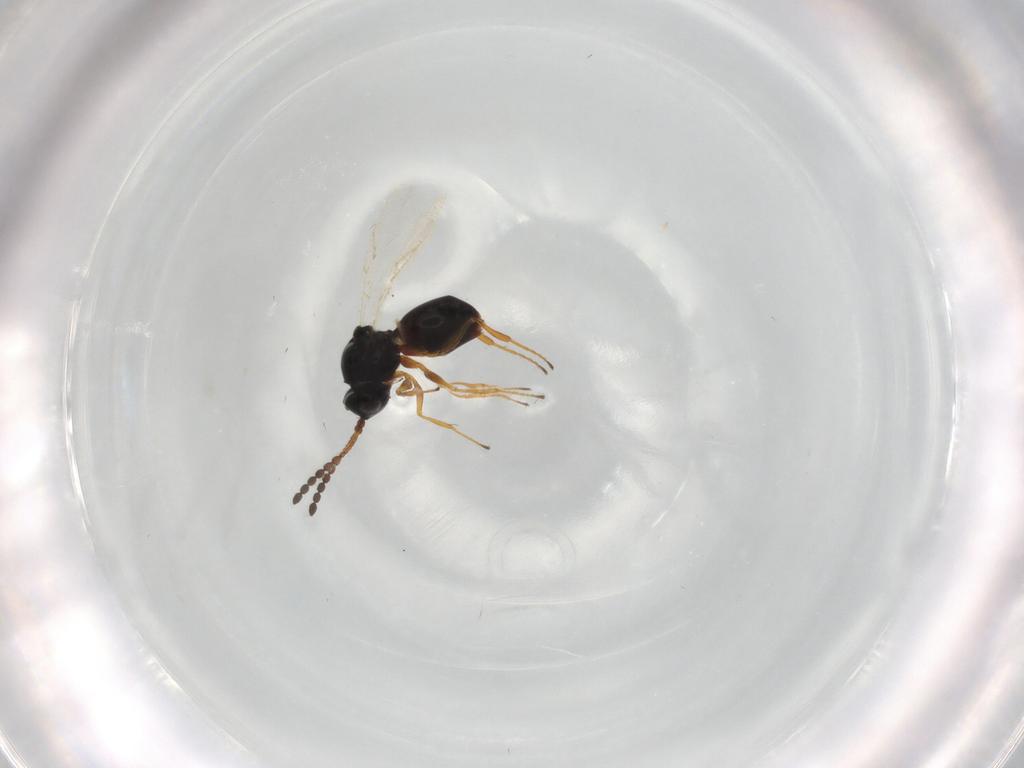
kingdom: Animalia
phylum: Arthropoda
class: Insecta
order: Hymenoptera
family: Figitidae
